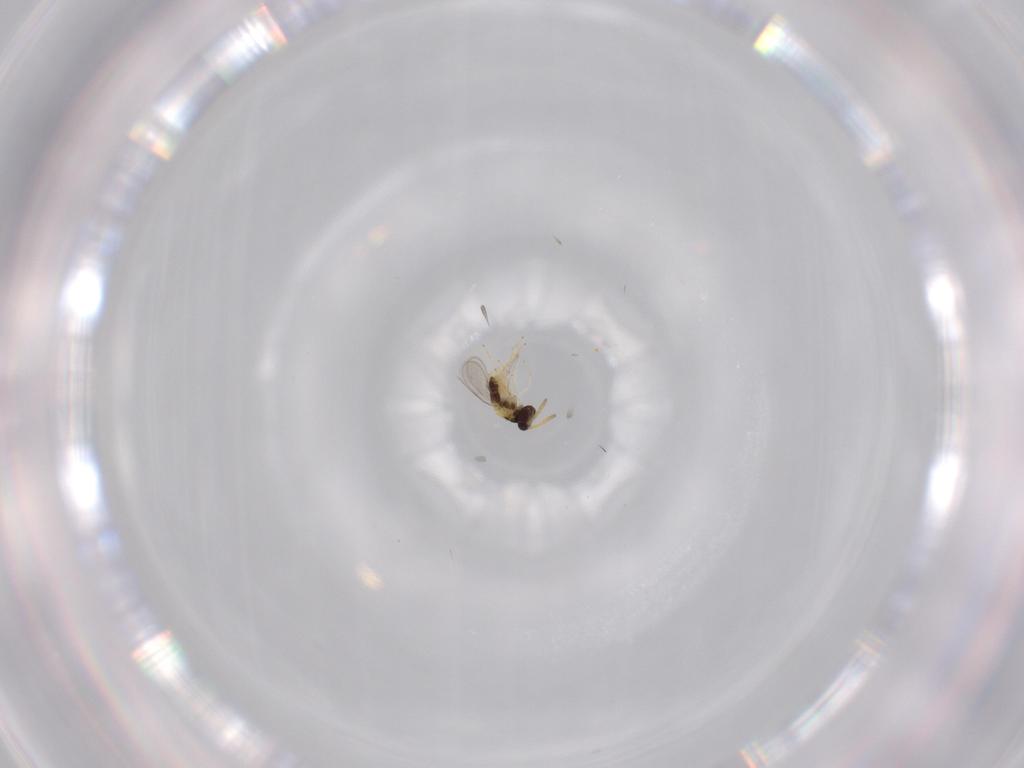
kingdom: Animalia
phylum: Arthropoda
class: Insecta
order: Hymenoptera
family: Aphelinidae
